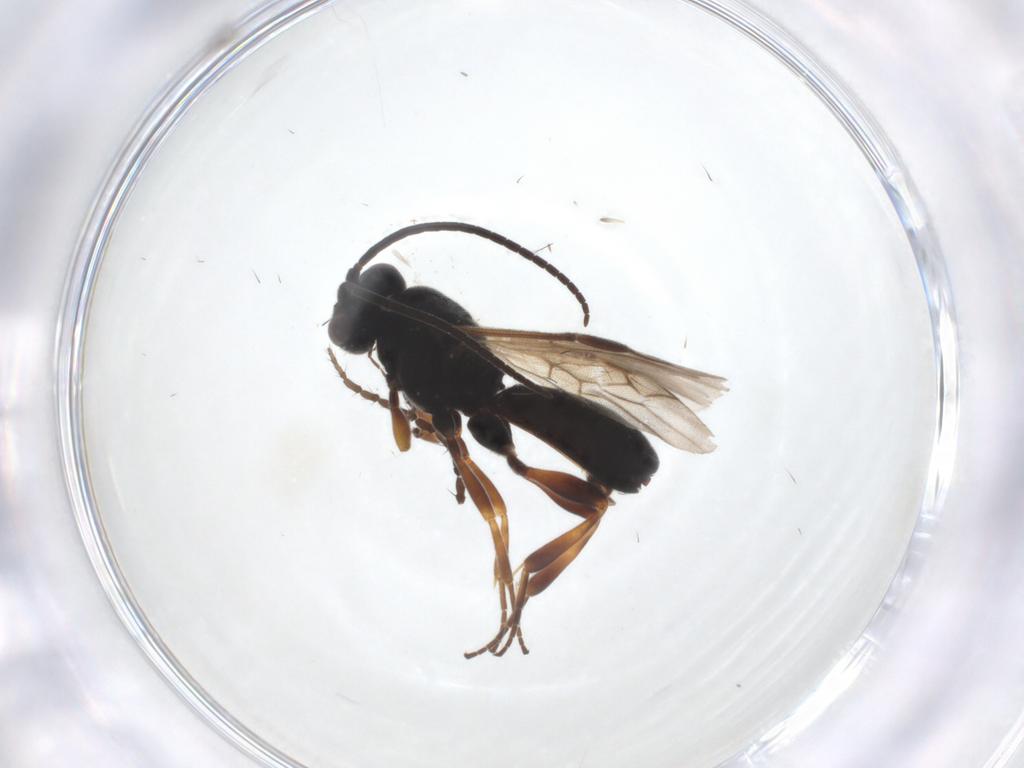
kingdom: Animalia
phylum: Arthropoda
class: Insecta
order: Hymenoptera
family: Braconidae
